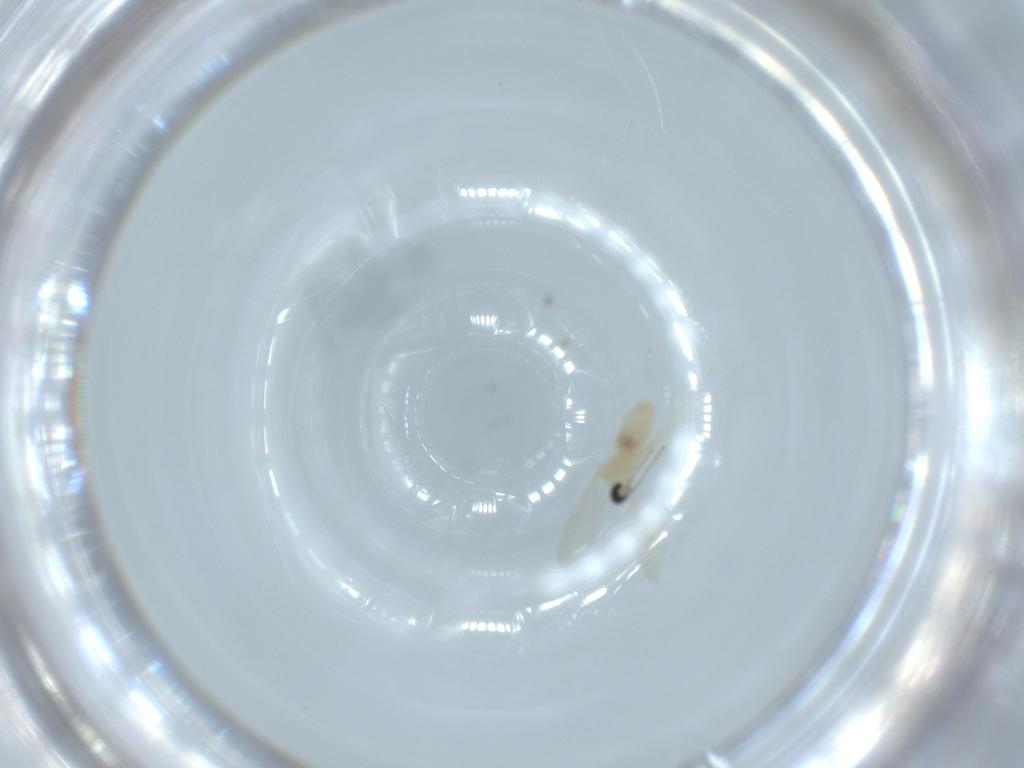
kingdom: Animalia
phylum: Arthropoda
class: Insecta
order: Diptera
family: Cecidomyiidae
